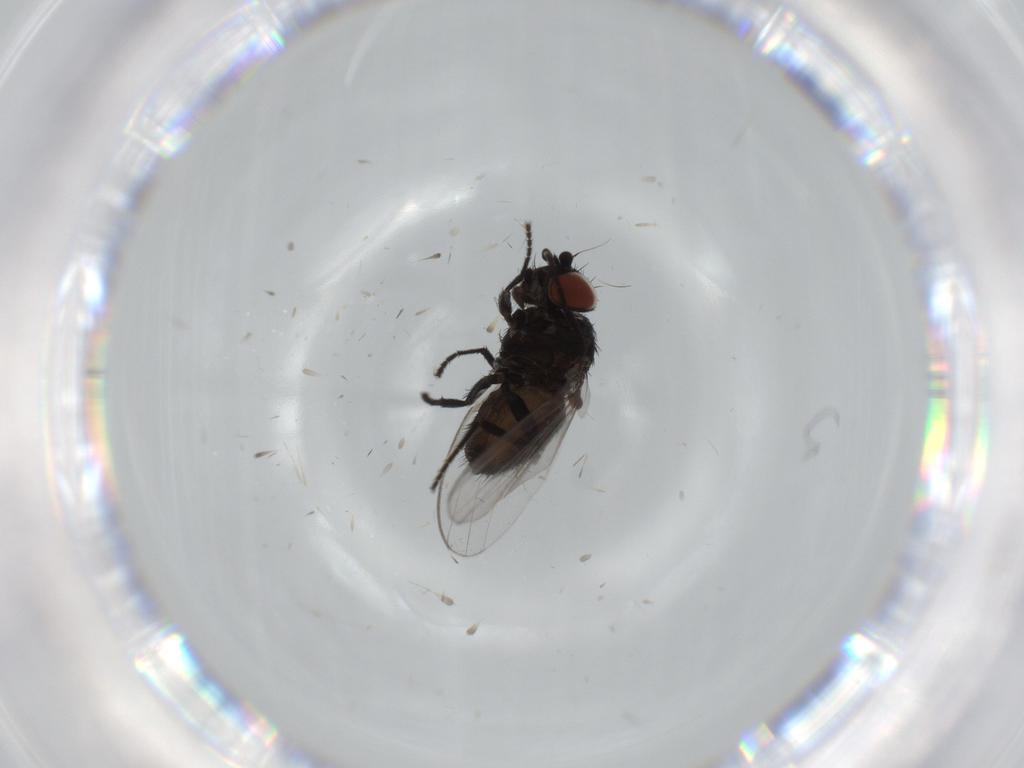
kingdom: Animalia
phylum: Arthropoda
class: Insecta
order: Diptera
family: Milichiidae
